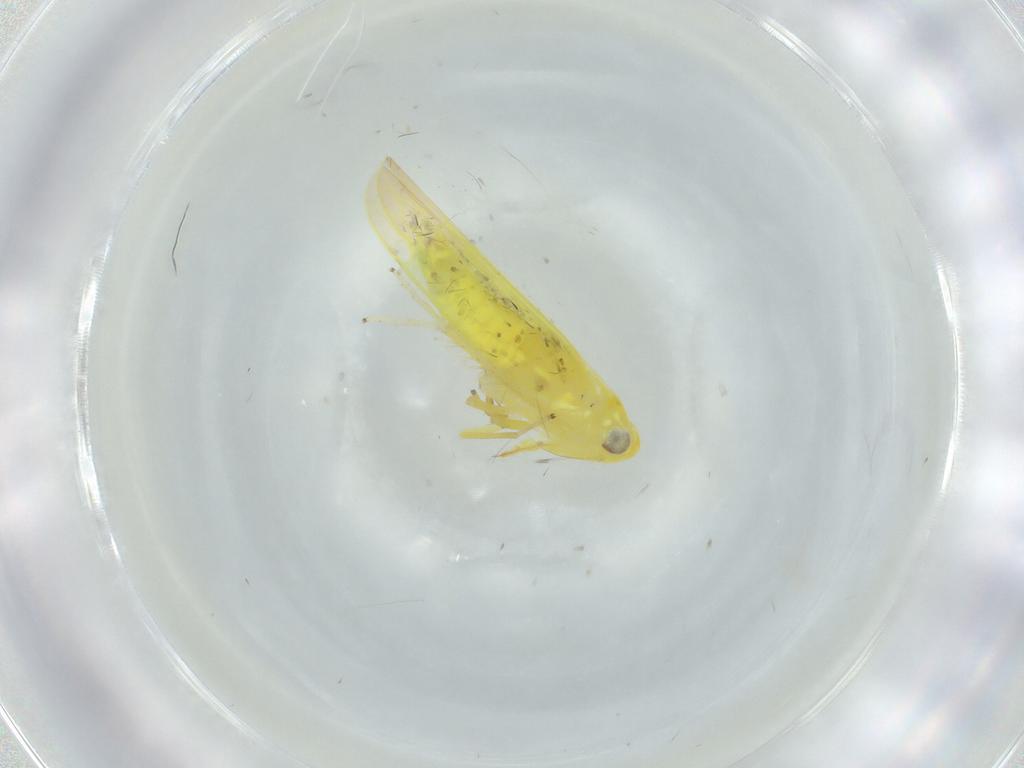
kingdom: Animalia
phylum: Arthropoda
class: Insecta
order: Hemiptera
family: Cicadellidae
